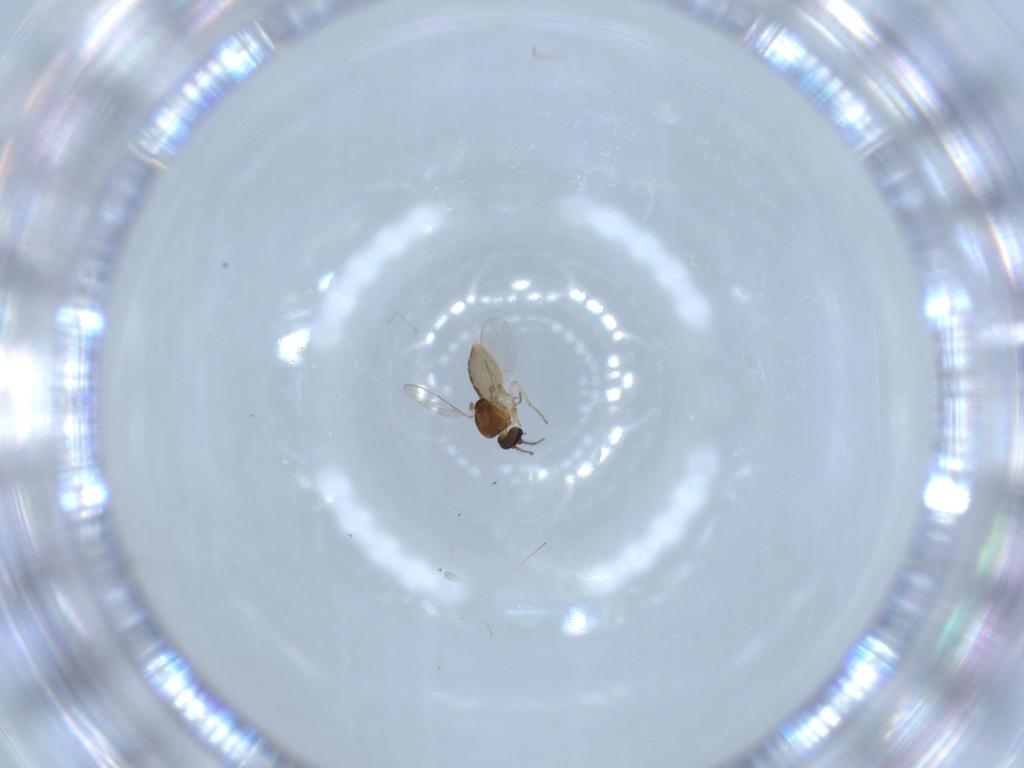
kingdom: Animalia
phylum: Arthropoda
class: Insecta
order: Diptera
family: Ceratopogonidae
